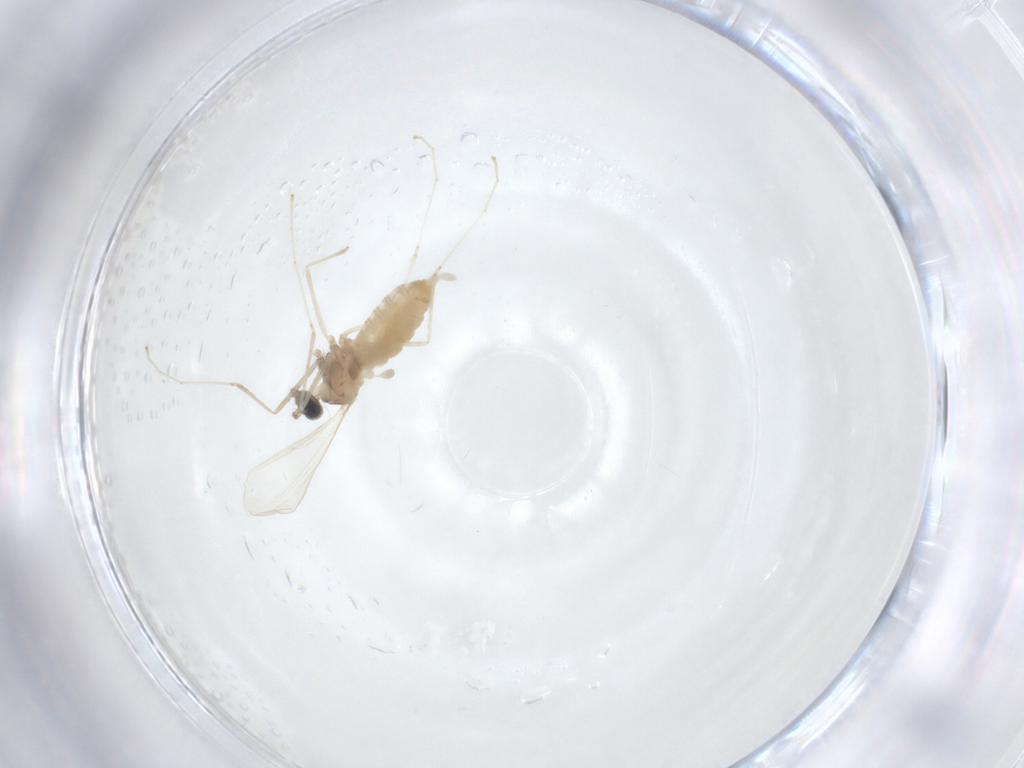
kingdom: Animalia
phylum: Arthropoda
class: Insecta
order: Diptera
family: Cecidomyiidae
